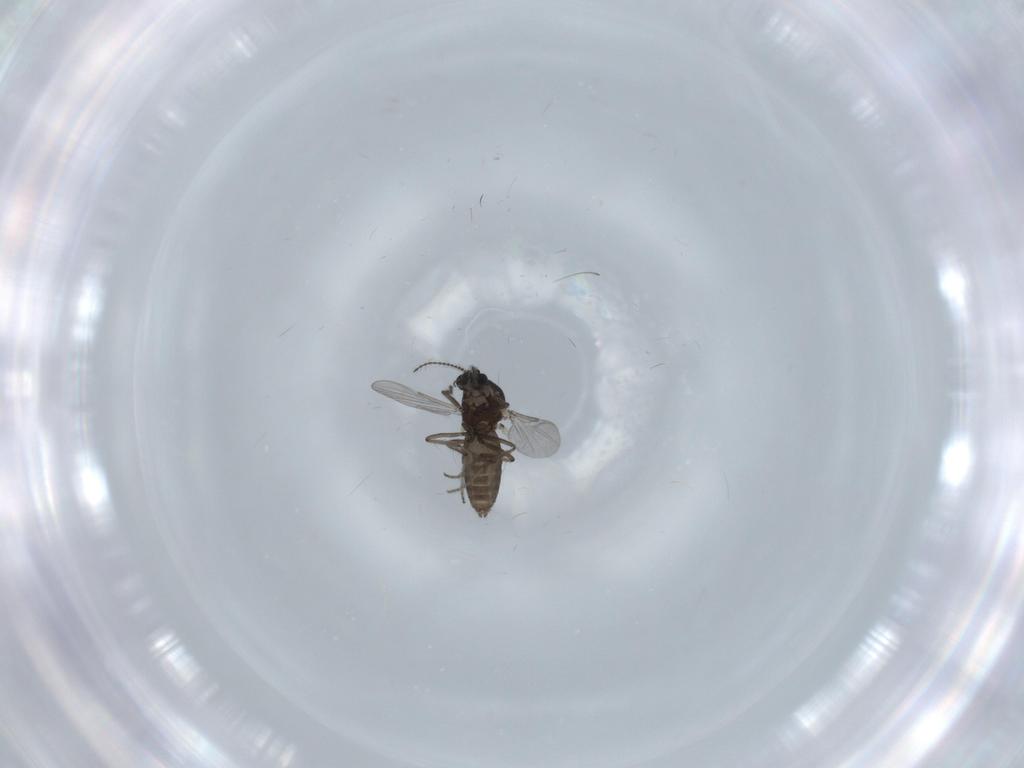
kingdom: Animalia
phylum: Arthropoda
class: Insecta
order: Diptera
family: Ceratopogonidae
